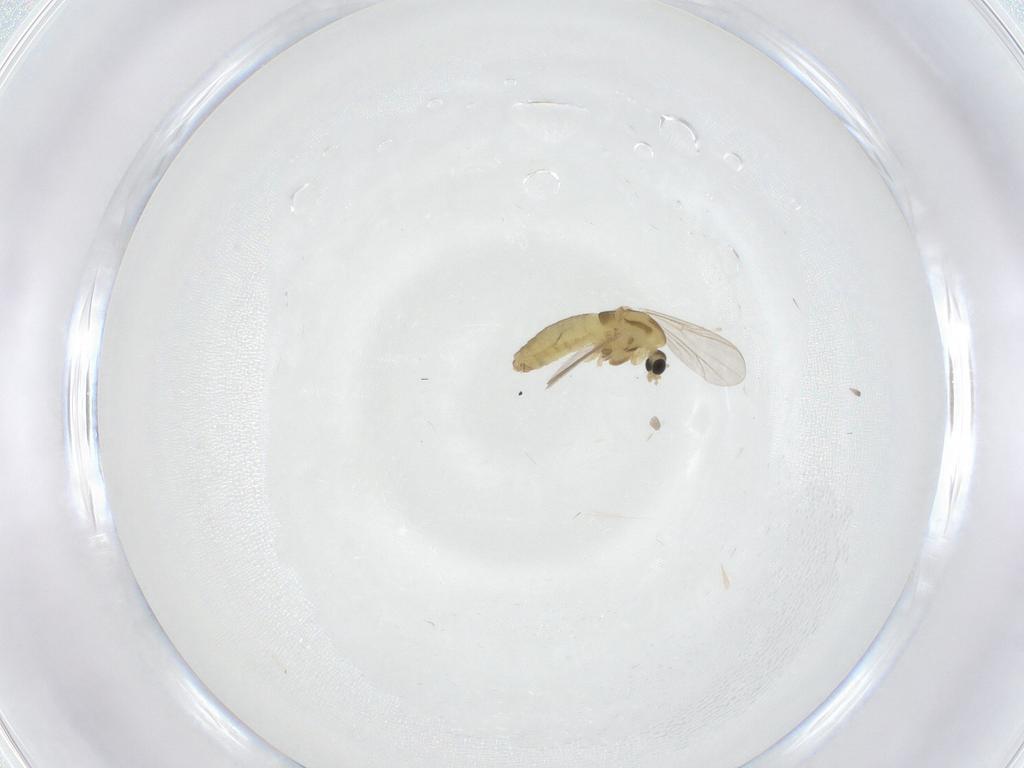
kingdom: Animalia
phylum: Arthropoda
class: Insecta
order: Diptera
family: Chironomidae
